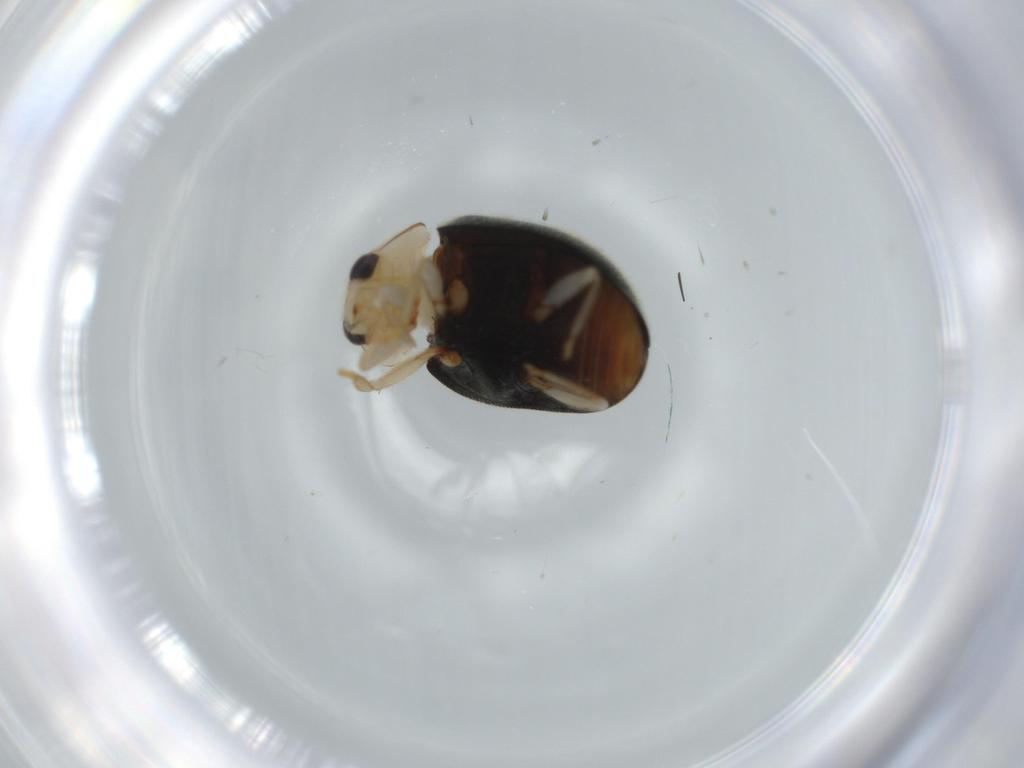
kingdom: Animalia
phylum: Arthropoda
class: Insecta
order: Coleoptera
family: Coccinellidae
